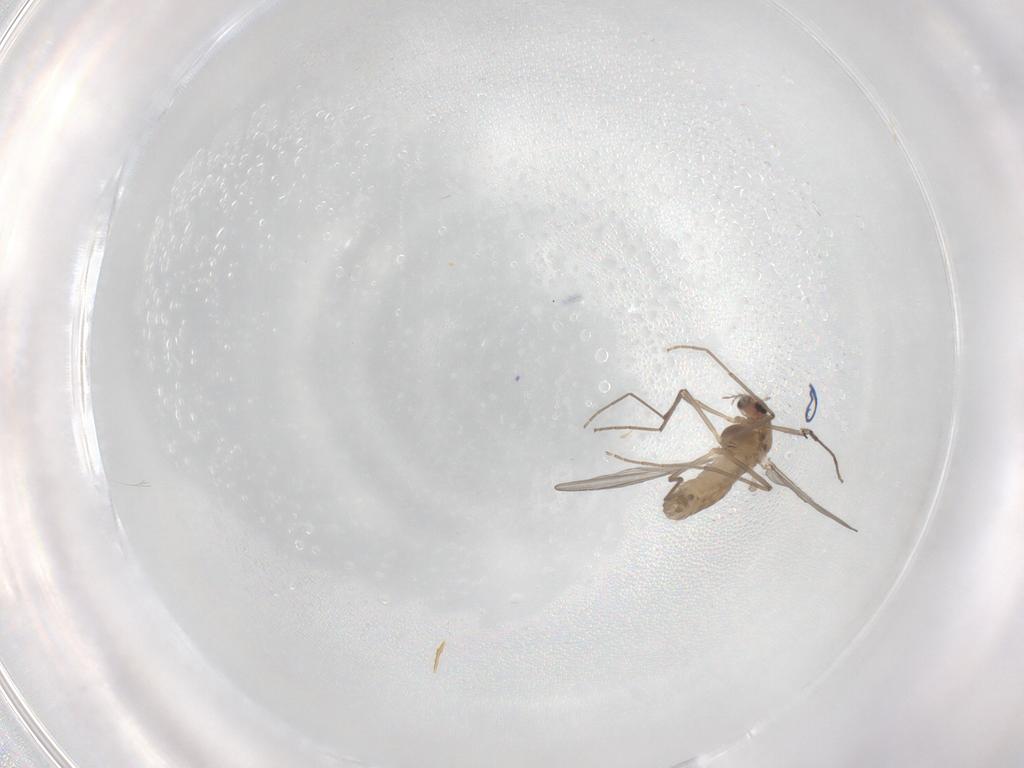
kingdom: Animalia
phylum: Arthropoda
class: Insecta
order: Diptera
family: Chironomidae
